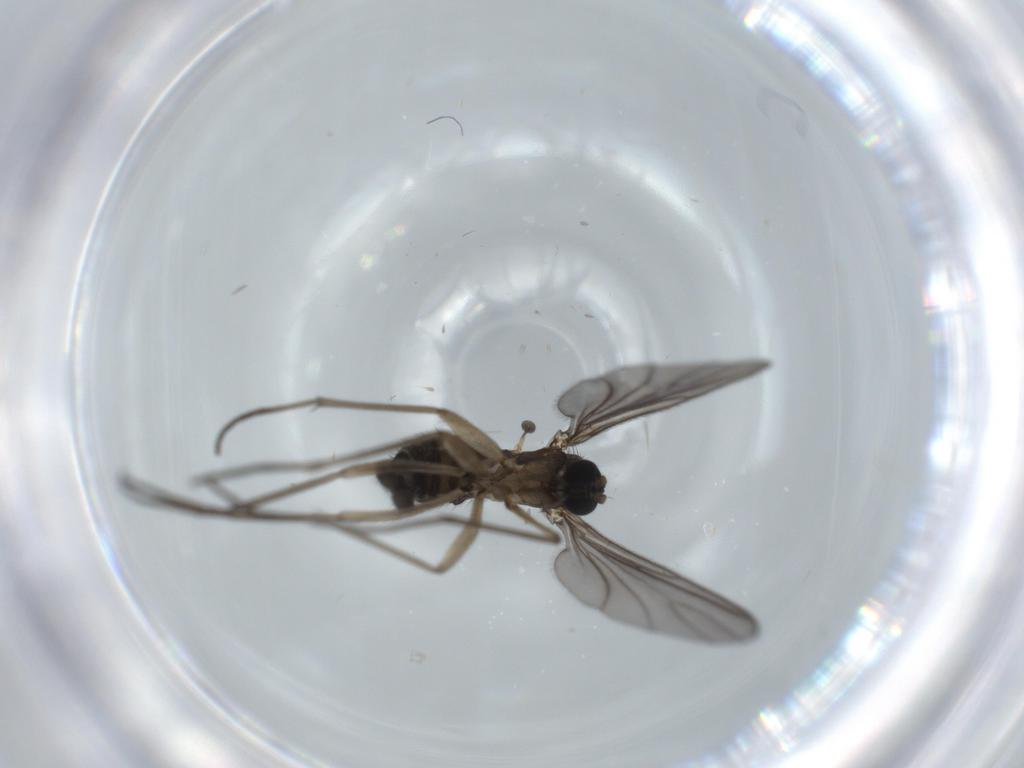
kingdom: Animalia
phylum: Arthropoda
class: Insecta
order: Diptera
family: Sciaridae
